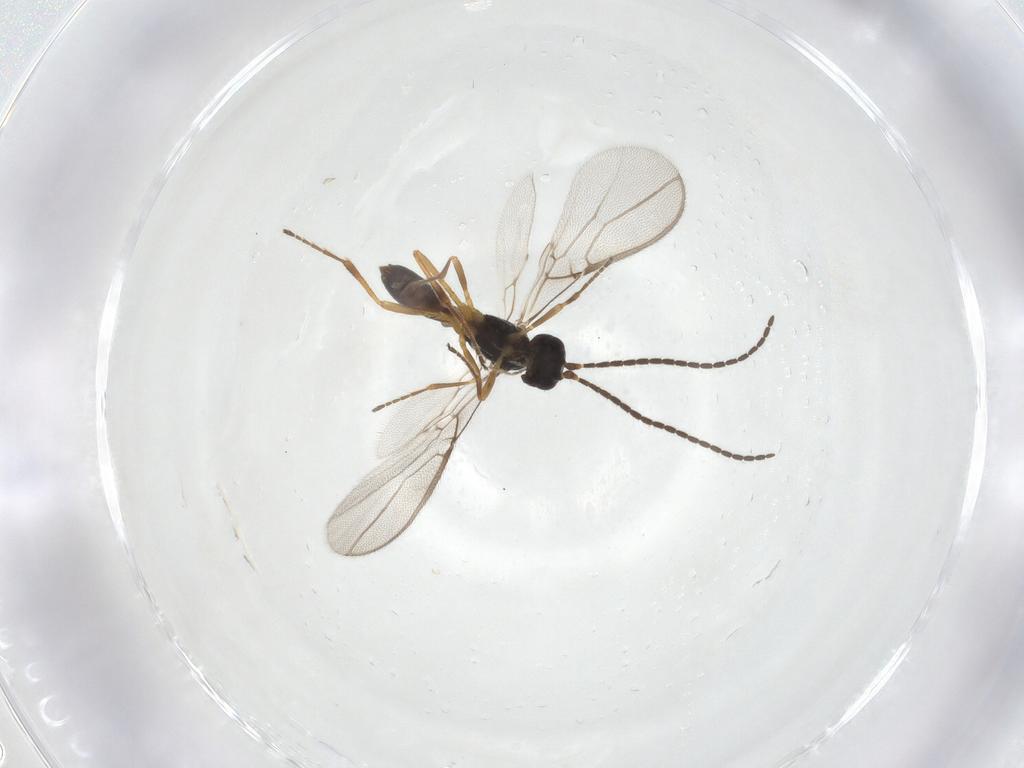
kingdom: Animalia
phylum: Arthropoda
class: Insecta
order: Hymenoptera
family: Braconidae
